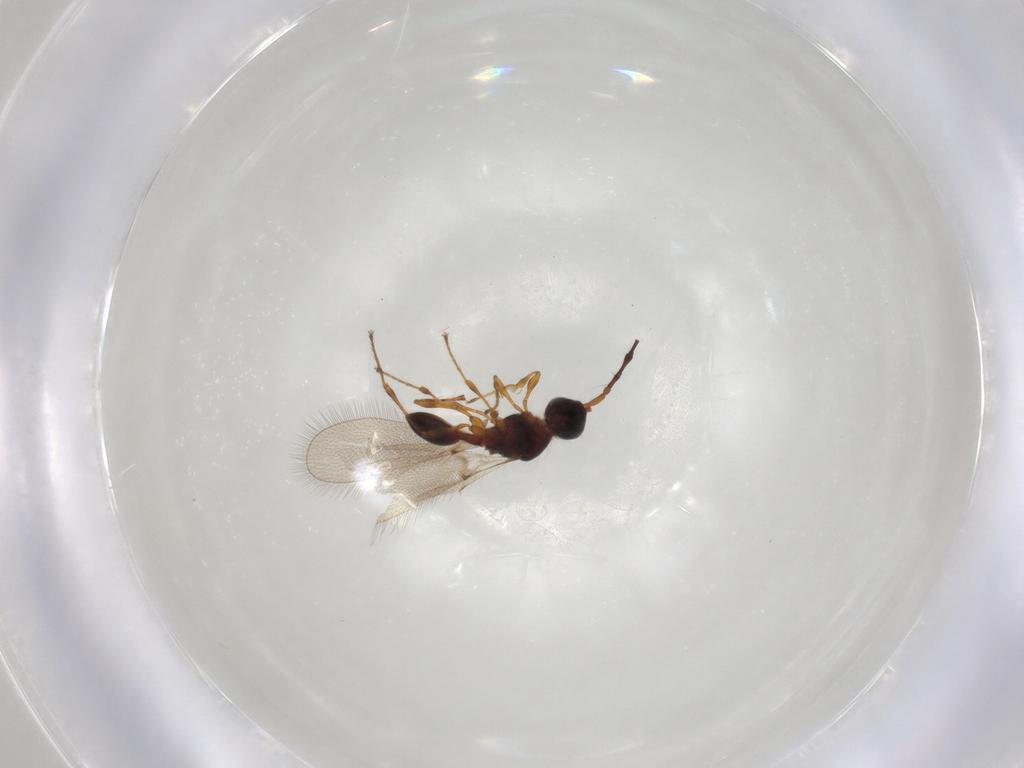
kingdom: Animalia
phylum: Arthropoda
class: Insecta
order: Hymenoptera
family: Diapriidae
